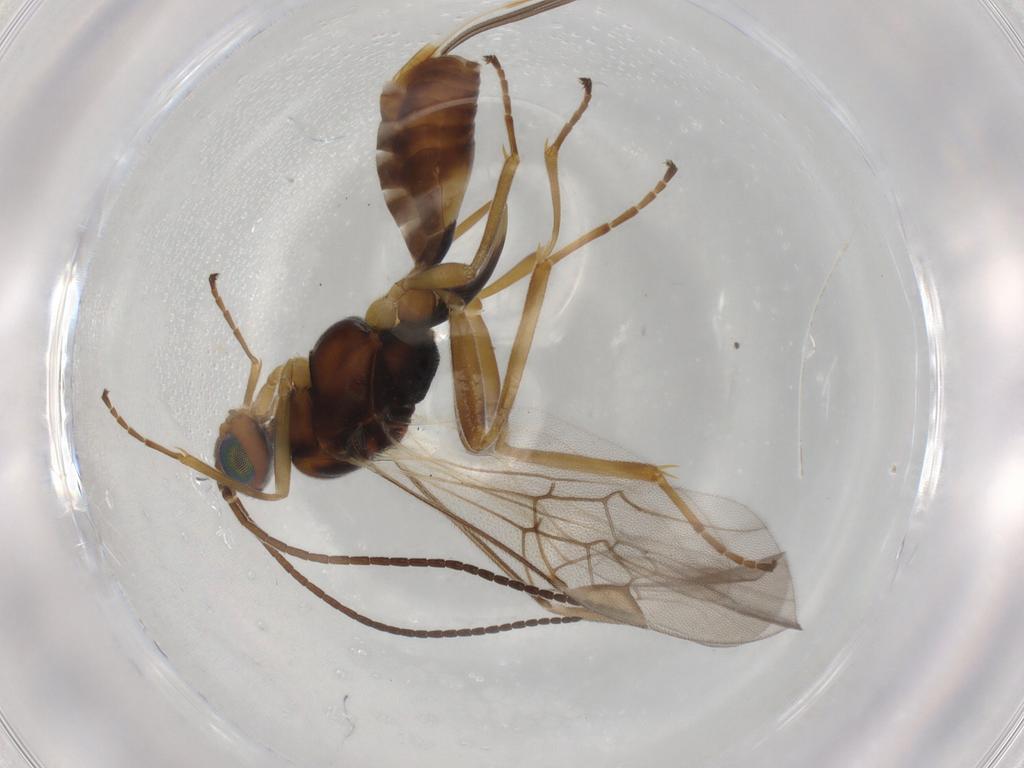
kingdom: Animalia
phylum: Arthropoda
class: Insecta
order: Hymenoptera
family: Braconidae
